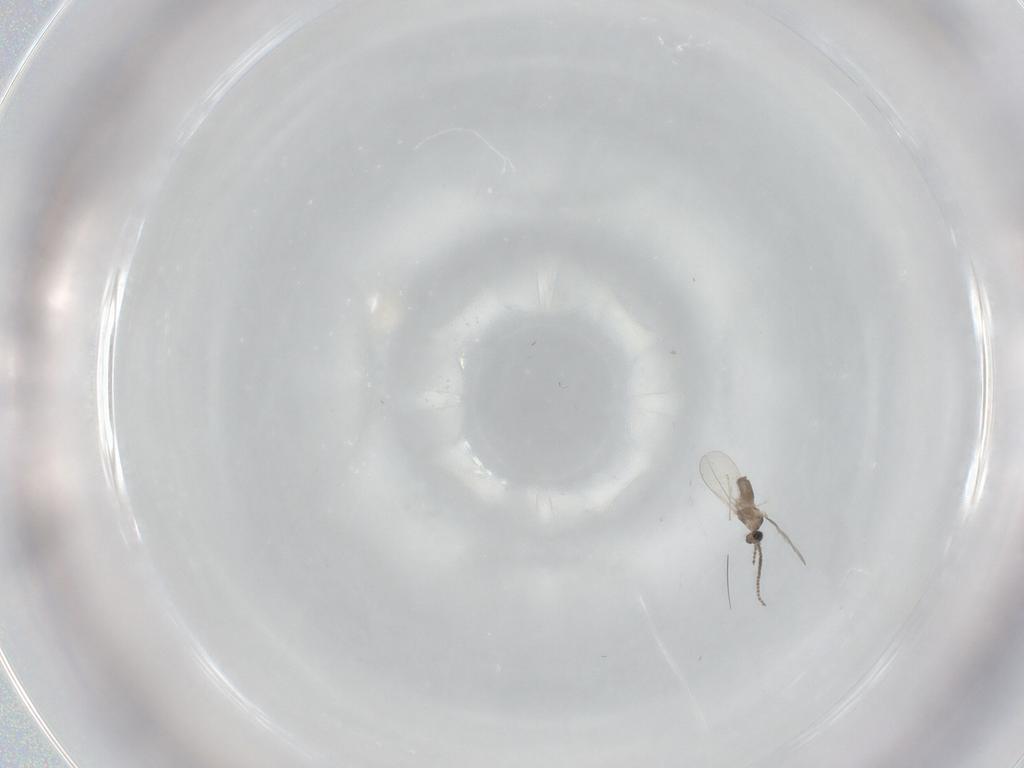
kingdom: Animalia
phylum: Arthropoda
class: Insecta
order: Diptera
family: Cecidomyiidae
